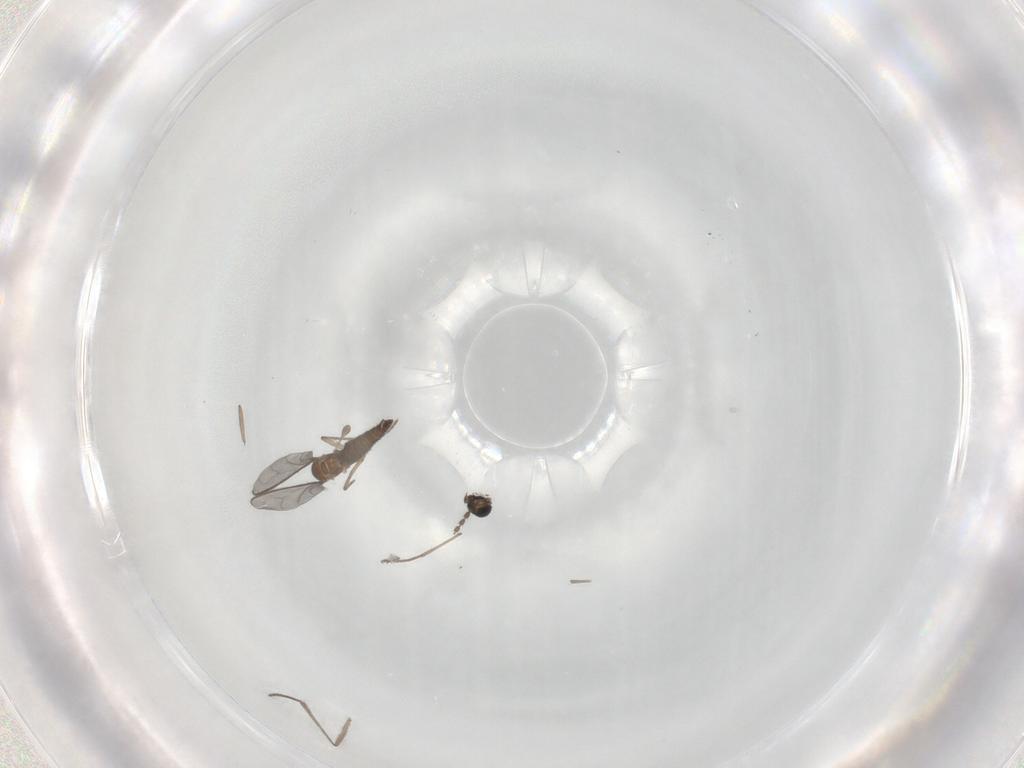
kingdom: Animalia
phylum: Arthropoda
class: Insecta
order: Diptera
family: Sciaridae
